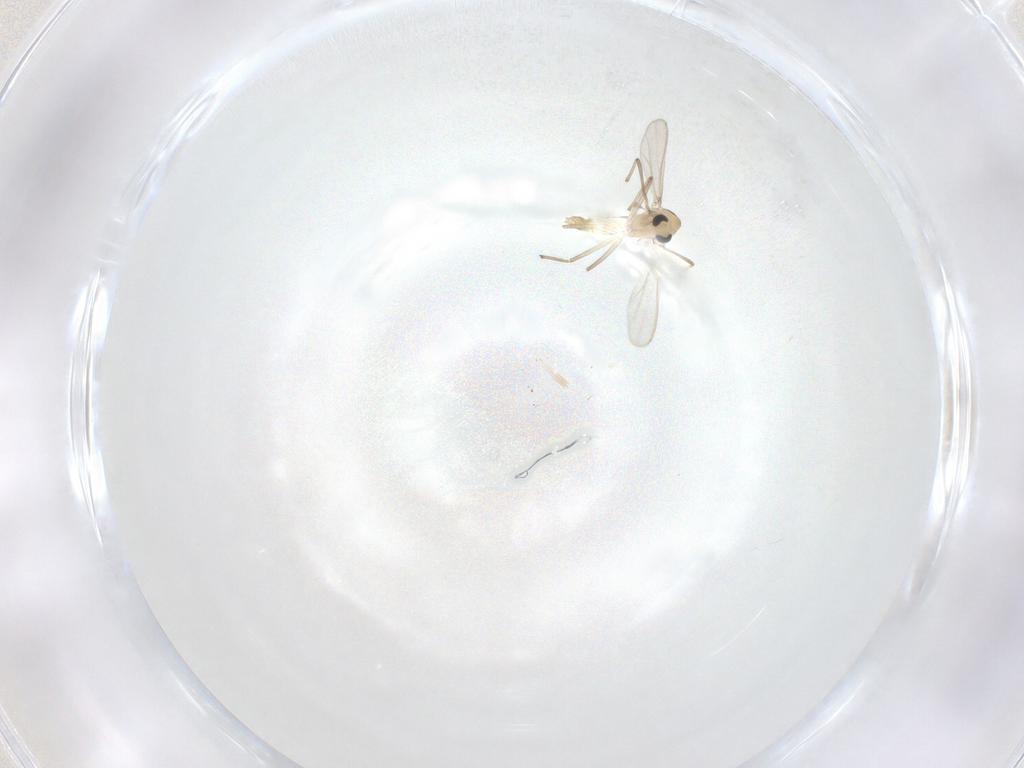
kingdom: Animalia
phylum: Arthropoda
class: Insecta
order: Diptera
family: Chironomidae
